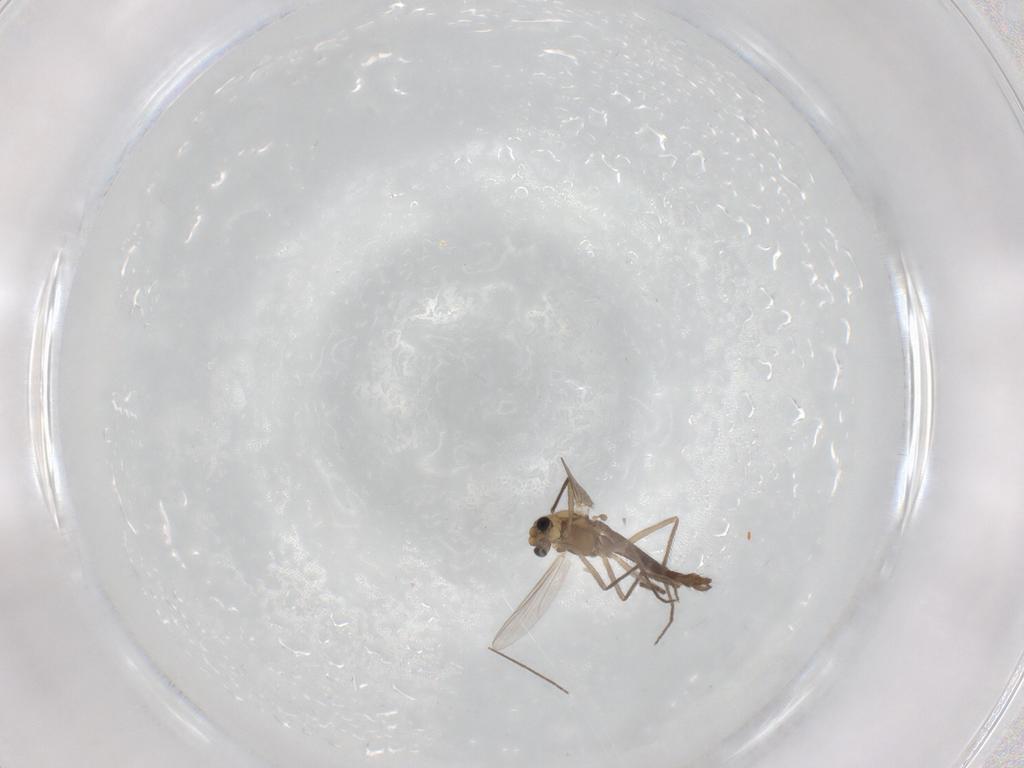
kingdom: Animalia
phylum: Arthropoda
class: Insecta
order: Diptera
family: Chironomidae
